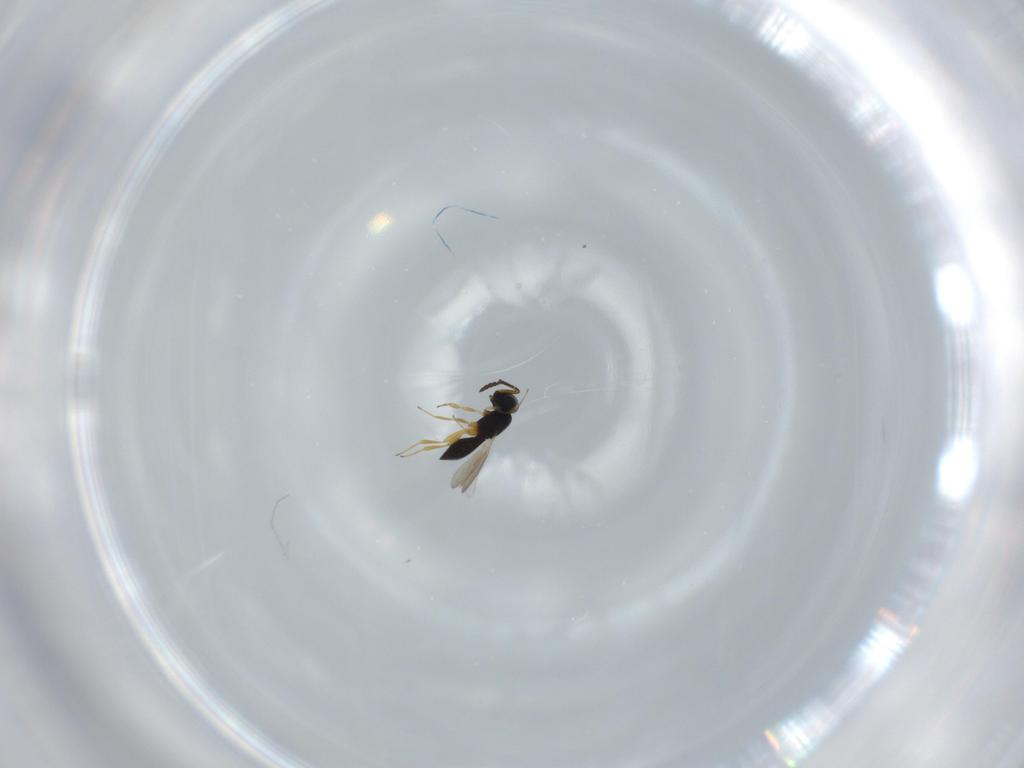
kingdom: Animalia
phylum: Arthropoda
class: Insecta
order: Hymenoptera
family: Scelionidae
